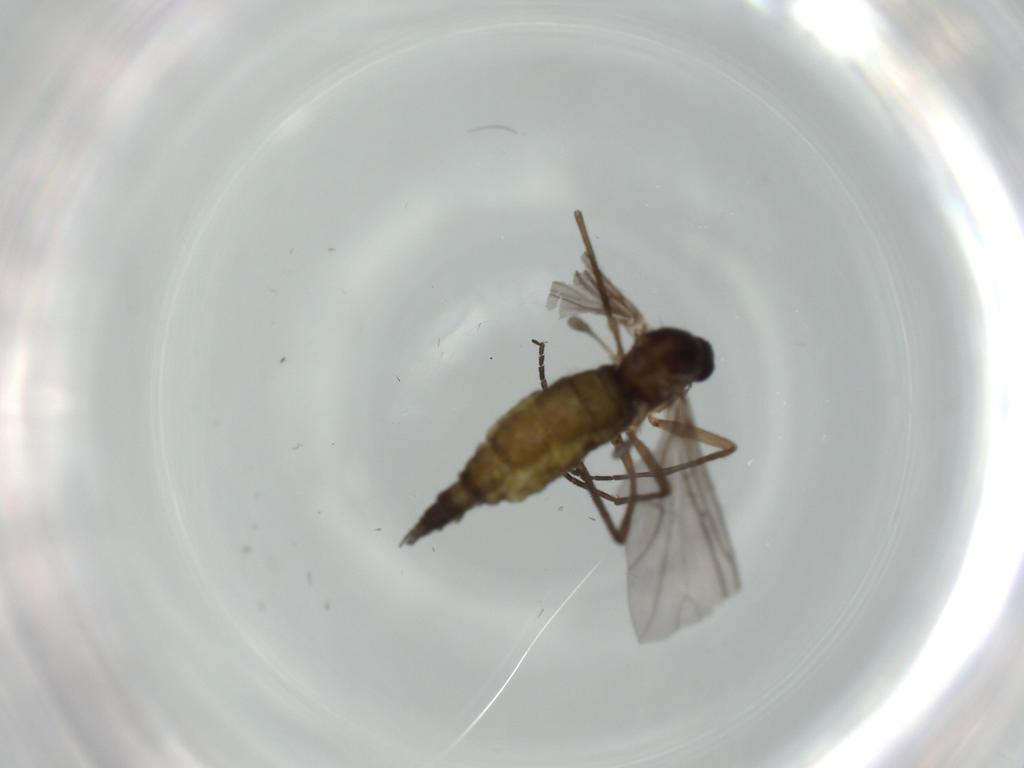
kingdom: Animalia
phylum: Arthropoda
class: Insecta
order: Diptera
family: Sciaridae
